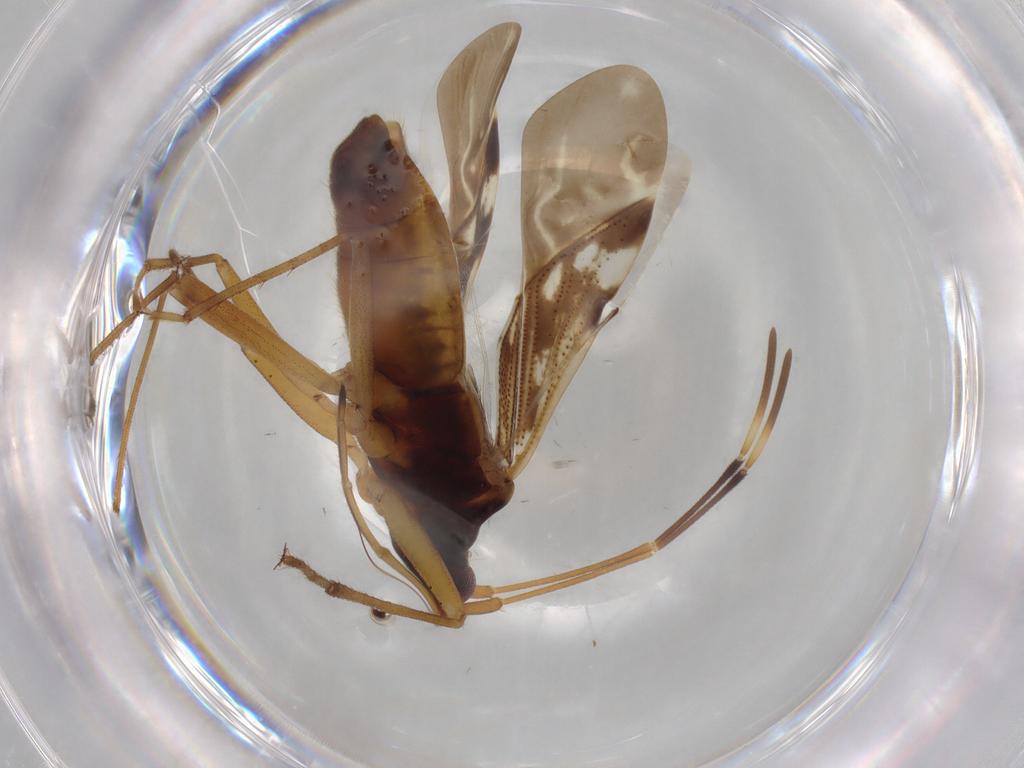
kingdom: Animalia
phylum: Arthropoda
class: Insecta
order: Hemiptera
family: Rhyparochromidae
